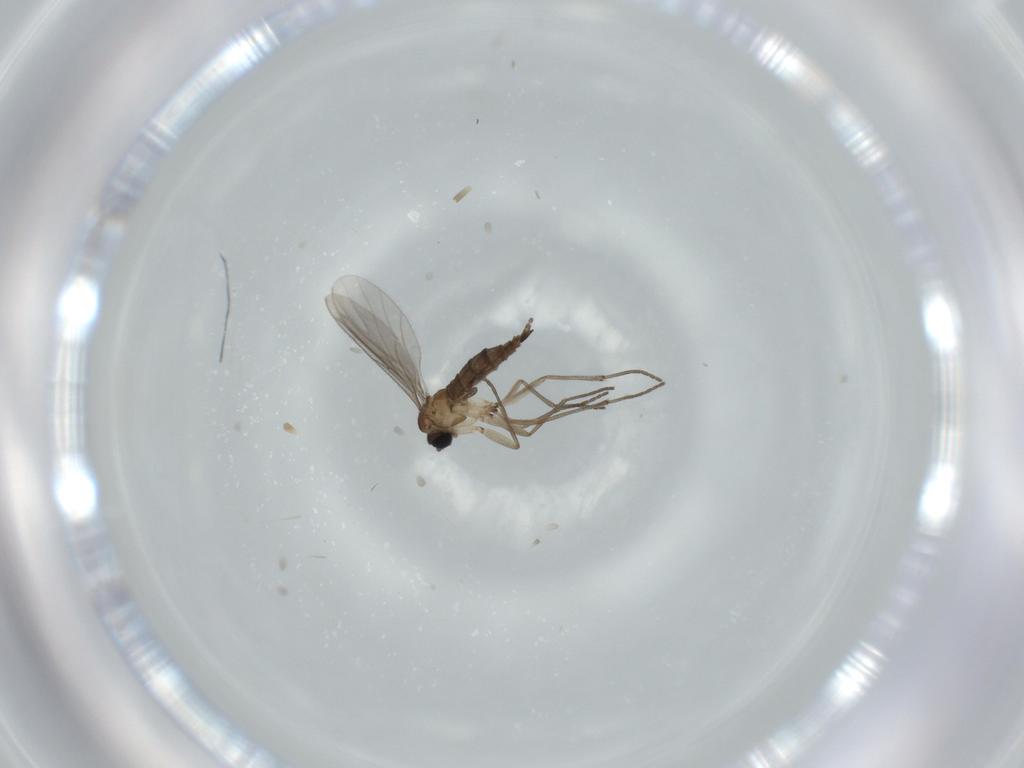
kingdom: Animalia
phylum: Arthropoda
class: Insecta
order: Diptera
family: Sciaridae
